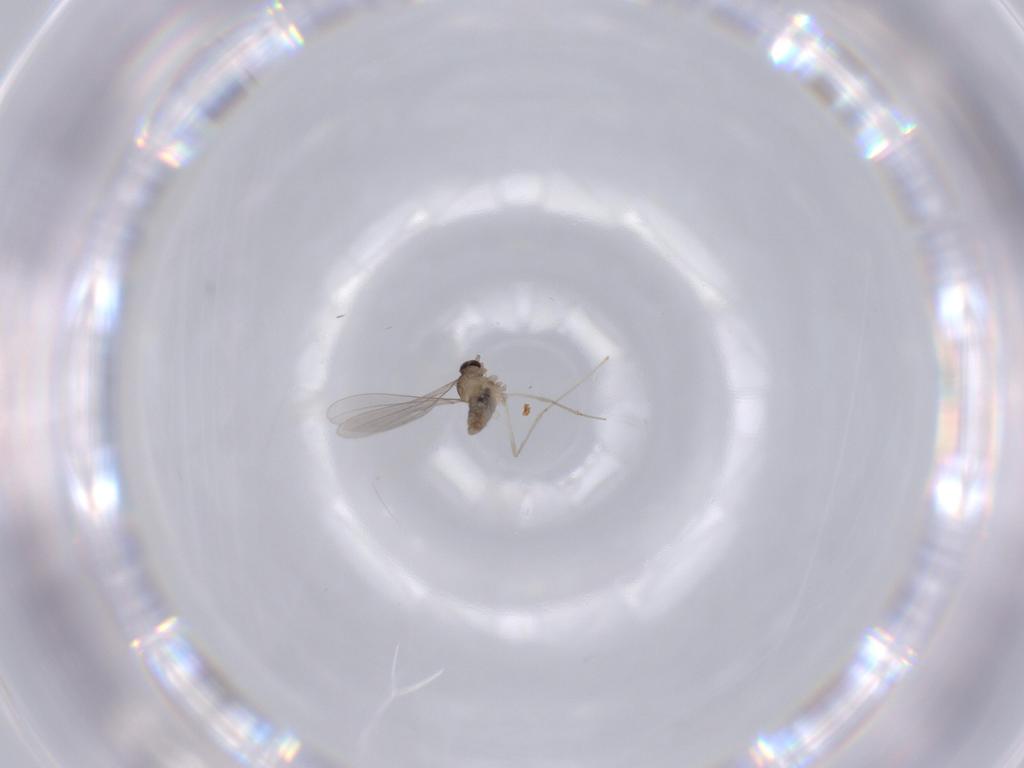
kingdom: Animalia
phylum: Arthropoda
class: Insecta
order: Diptera
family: Cecidomyiidae
